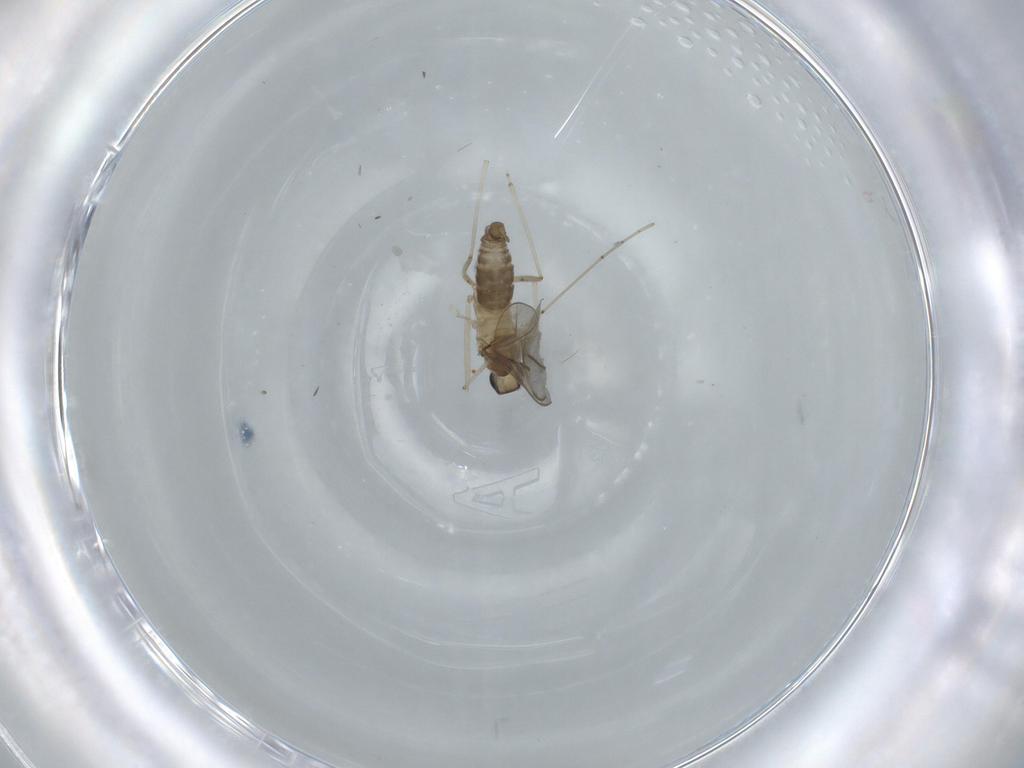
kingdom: Animalia
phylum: Arthropoda
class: Insecta
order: Diptera
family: Cecidomyiidae
